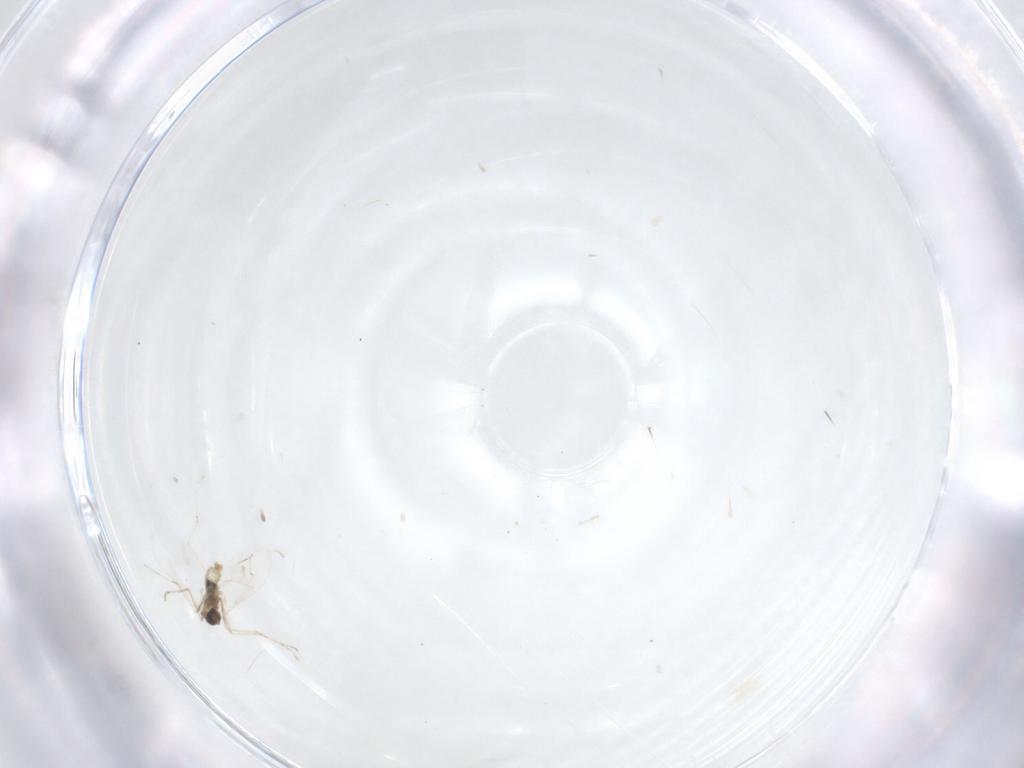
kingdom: Animalia
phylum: Arthropoda
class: Insecta
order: Diptera
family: Cecidomyiidae
